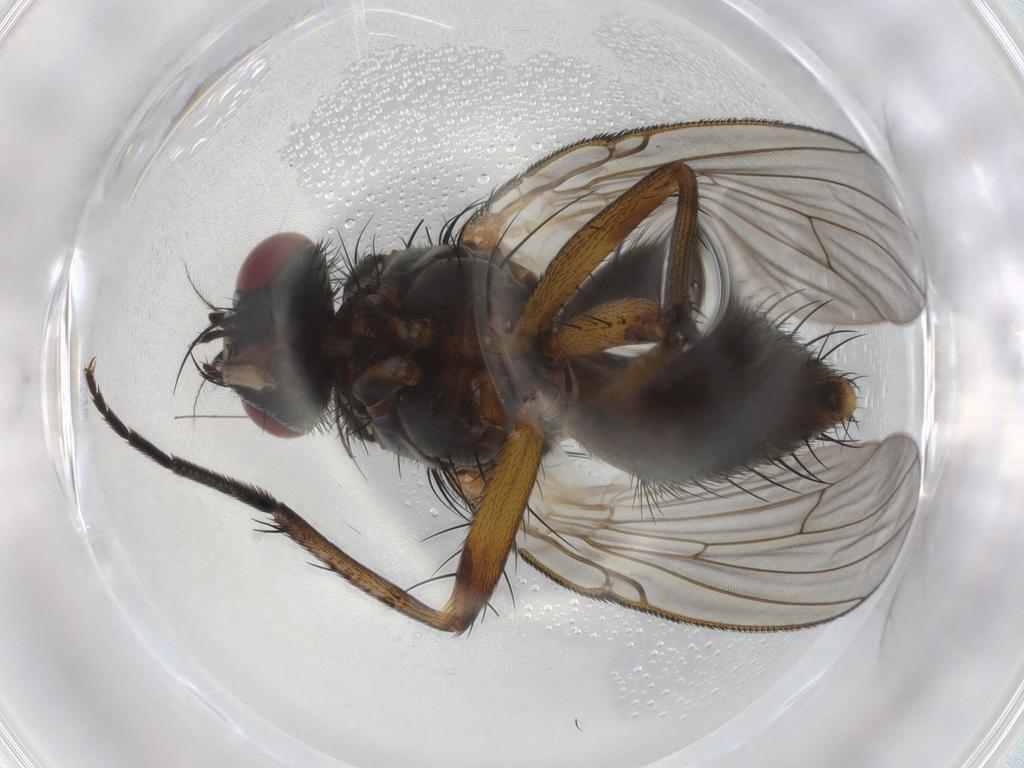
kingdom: Animalia
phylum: Arthropoda
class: Insecta
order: Diptera
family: Muscidae
